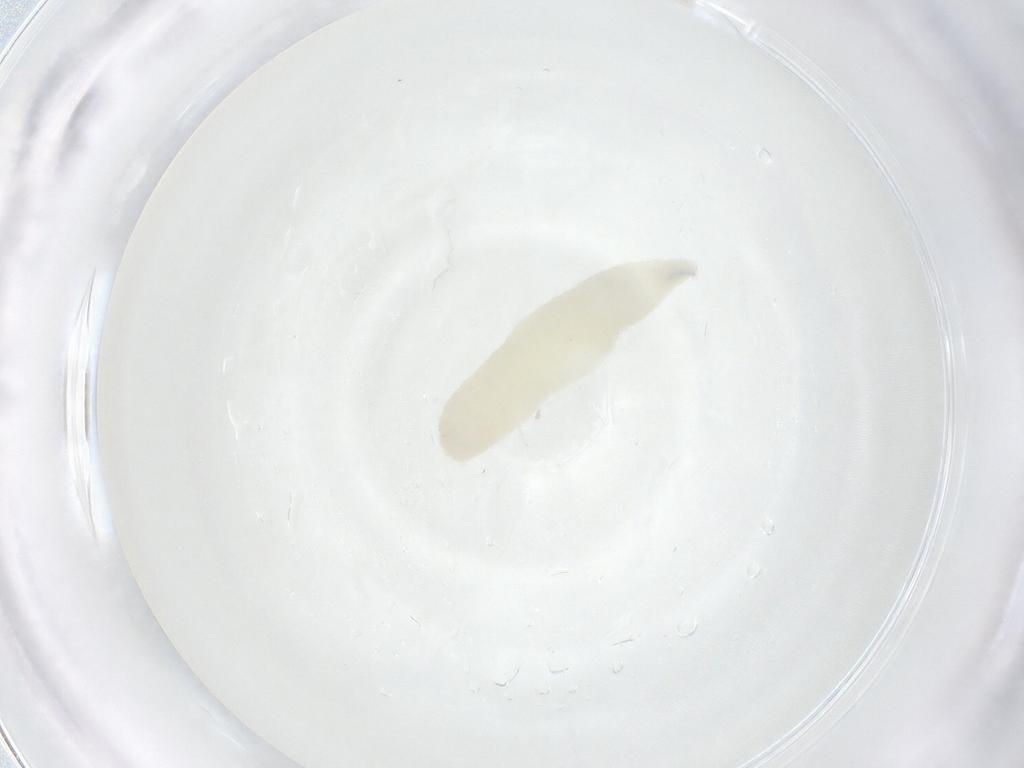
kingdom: Animalia
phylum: Arthropoda
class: Insecta
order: Diptera
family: Calliphoridae
